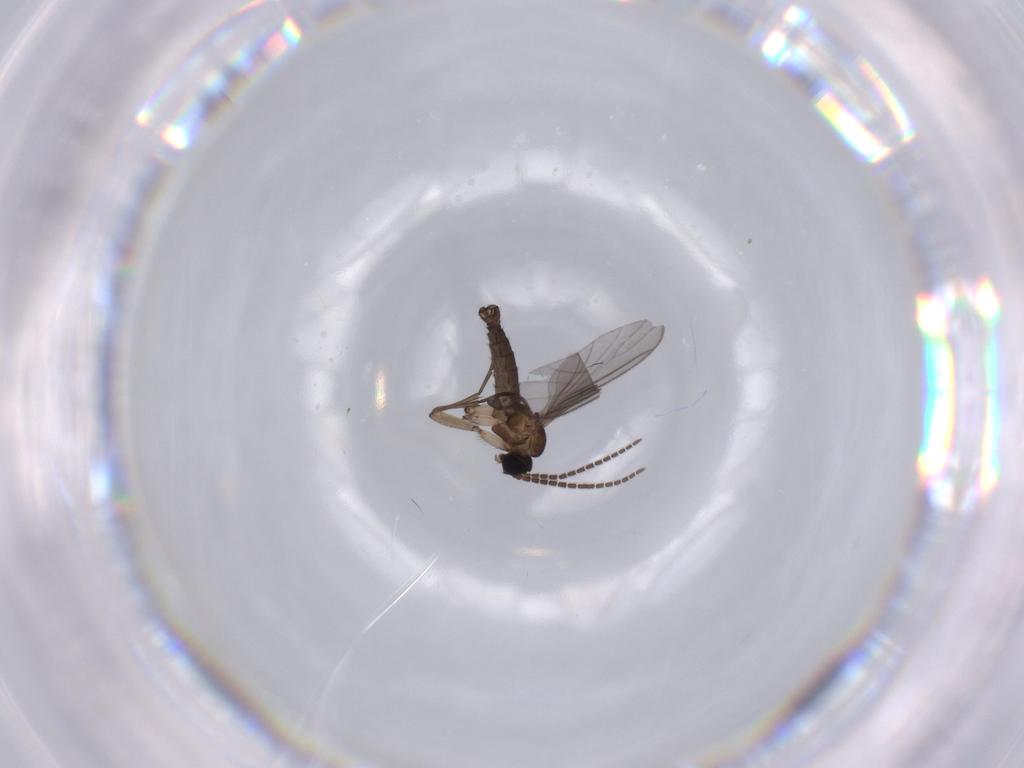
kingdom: Animalia
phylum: Arthropoda
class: Insecta
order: Diptera
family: Sciaridae
